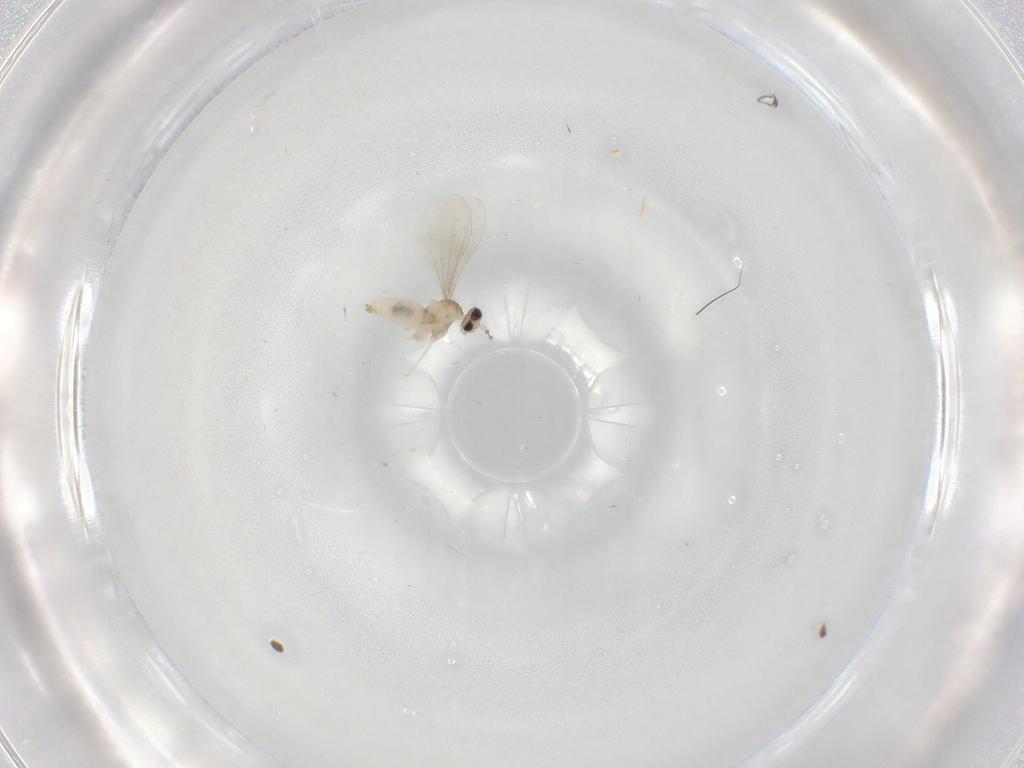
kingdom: Animalia
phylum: Arthropoda
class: Insecta
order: Diptera
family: Cecidomyiidae
